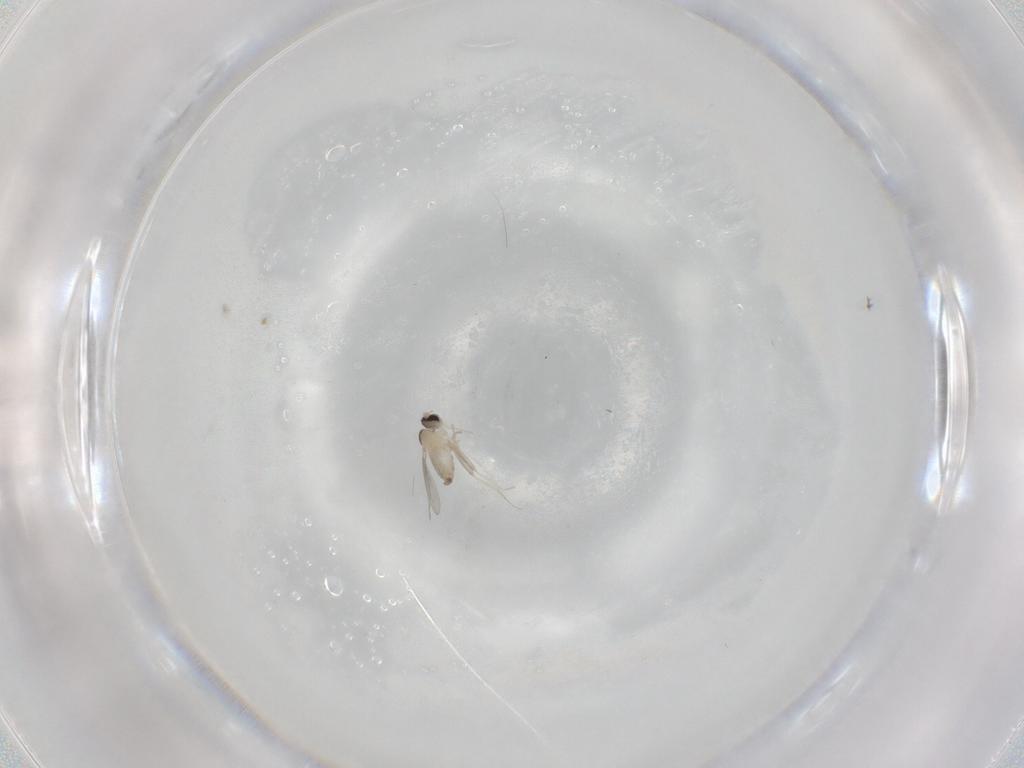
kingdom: Animalia
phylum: Arthropoda
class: Insecta
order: Diptera
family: Cecidomyiidae
